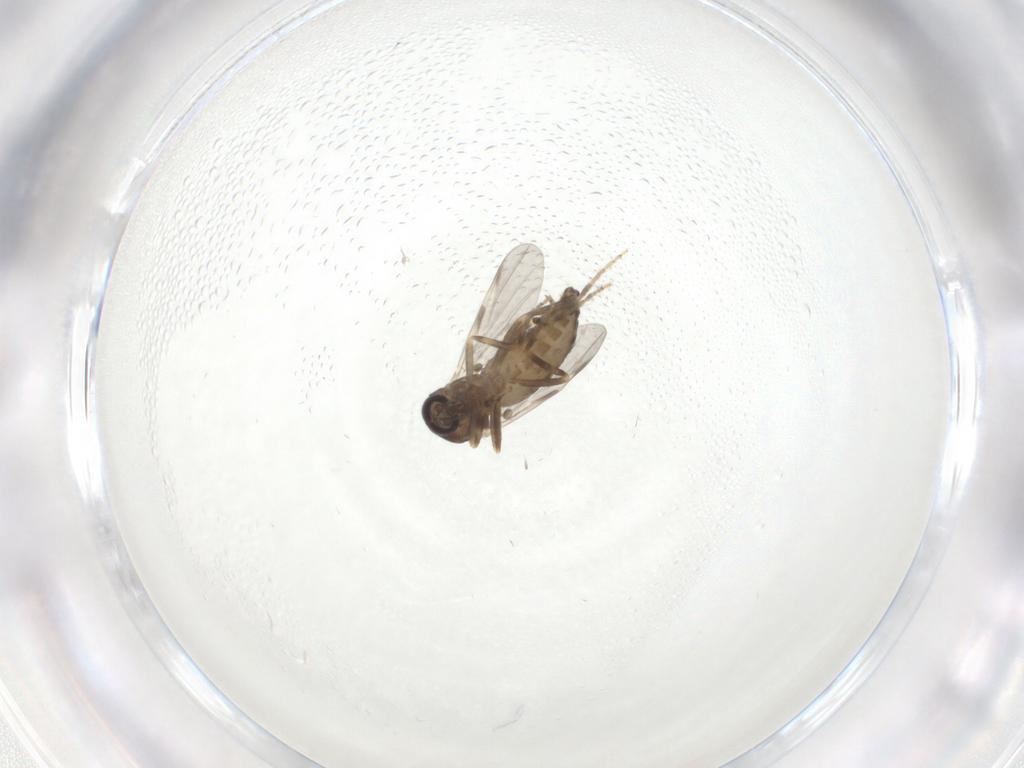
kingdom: Animalia
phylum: Arthropoda
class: Insecta
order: Diptera
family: Ceratopogonidae
